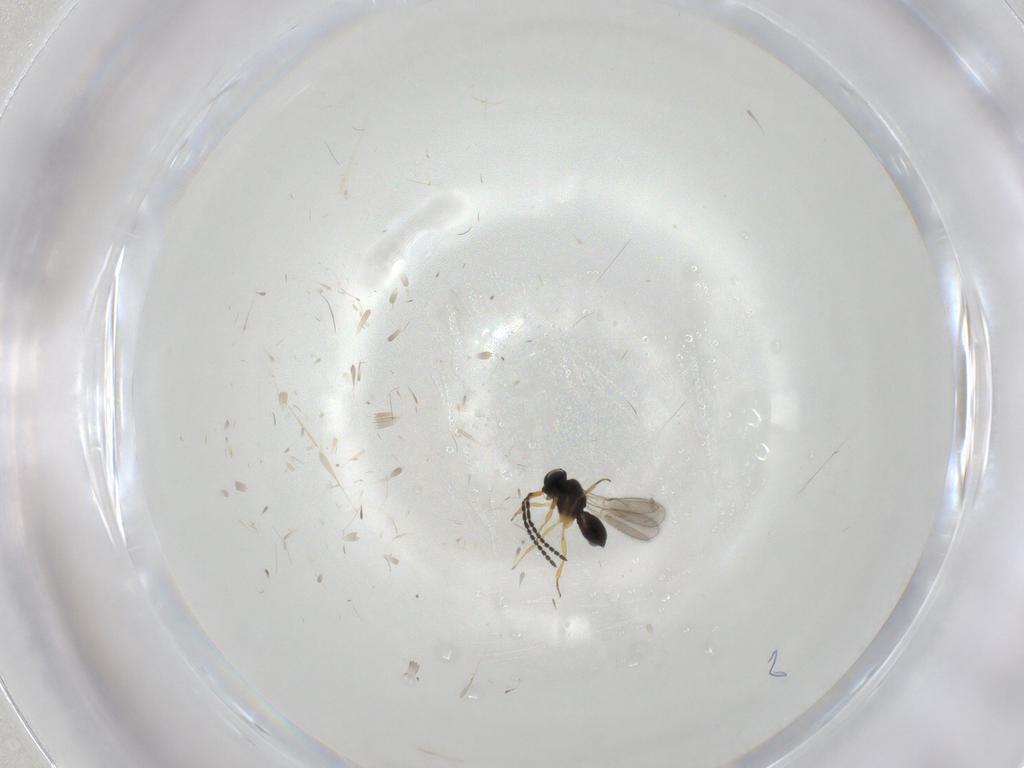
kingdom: Animalia
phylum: Arthropoda
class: Insecta
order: Hymenoptera
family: Scelionidae
